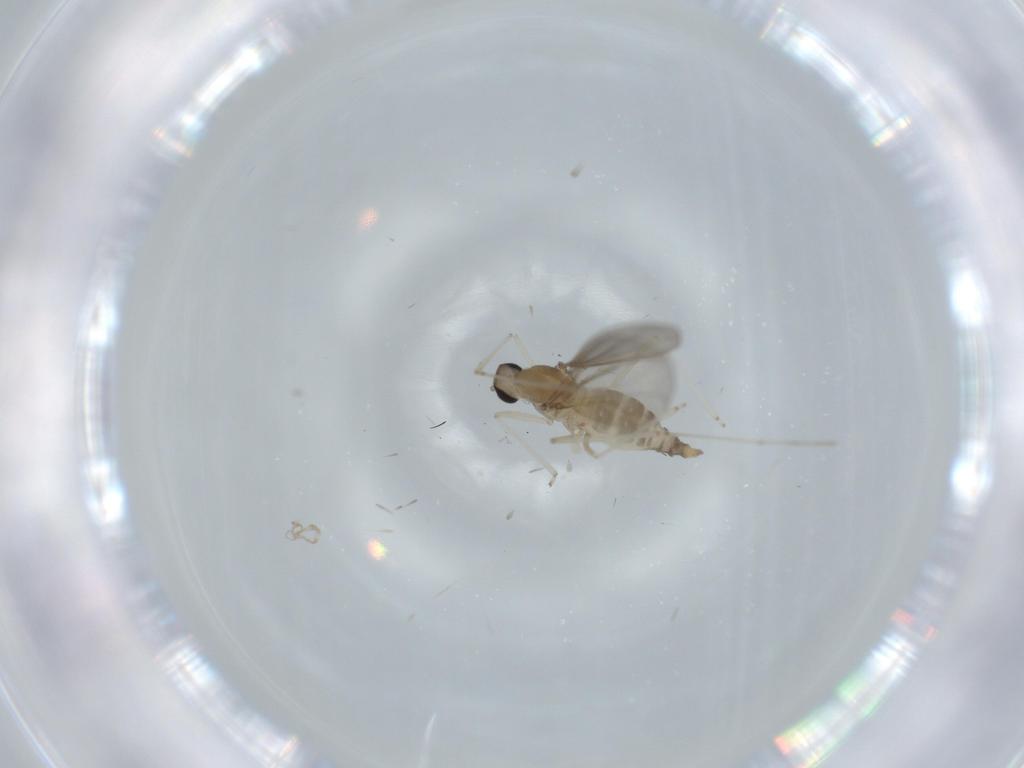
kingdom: Animalia
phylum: Arthropoda
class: Insecta
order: Diptera
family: Cecidomyiidae
